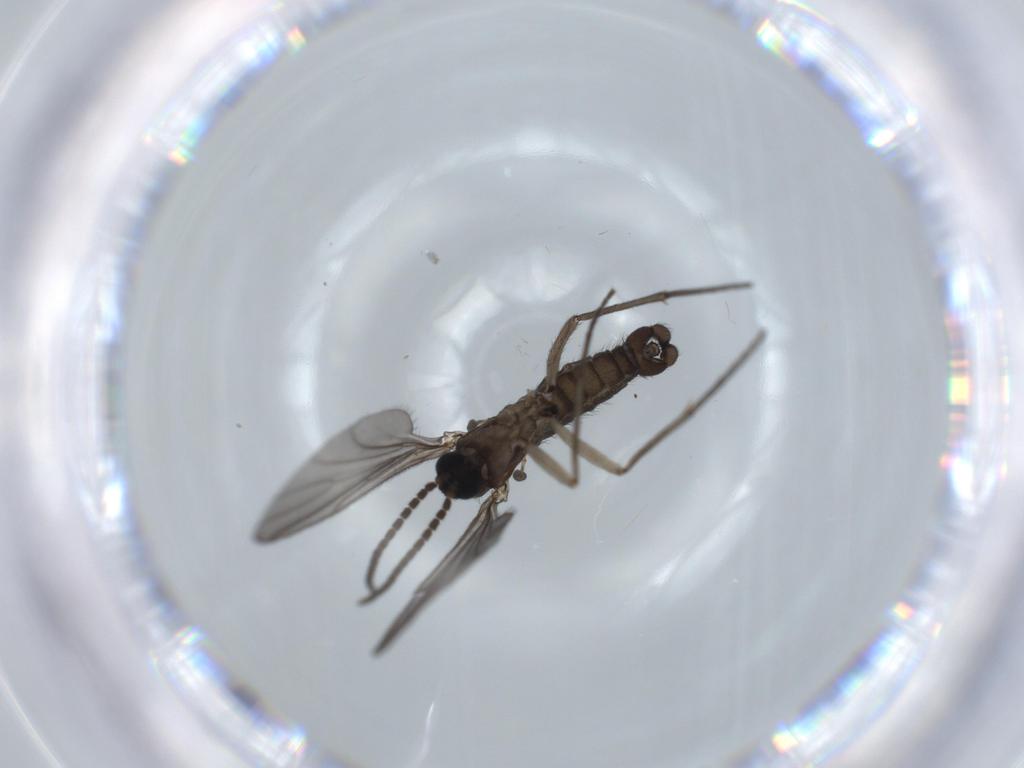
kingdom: Animalia
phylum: Arthropoda
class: Insecta
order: Diptera
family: Sciaridae
